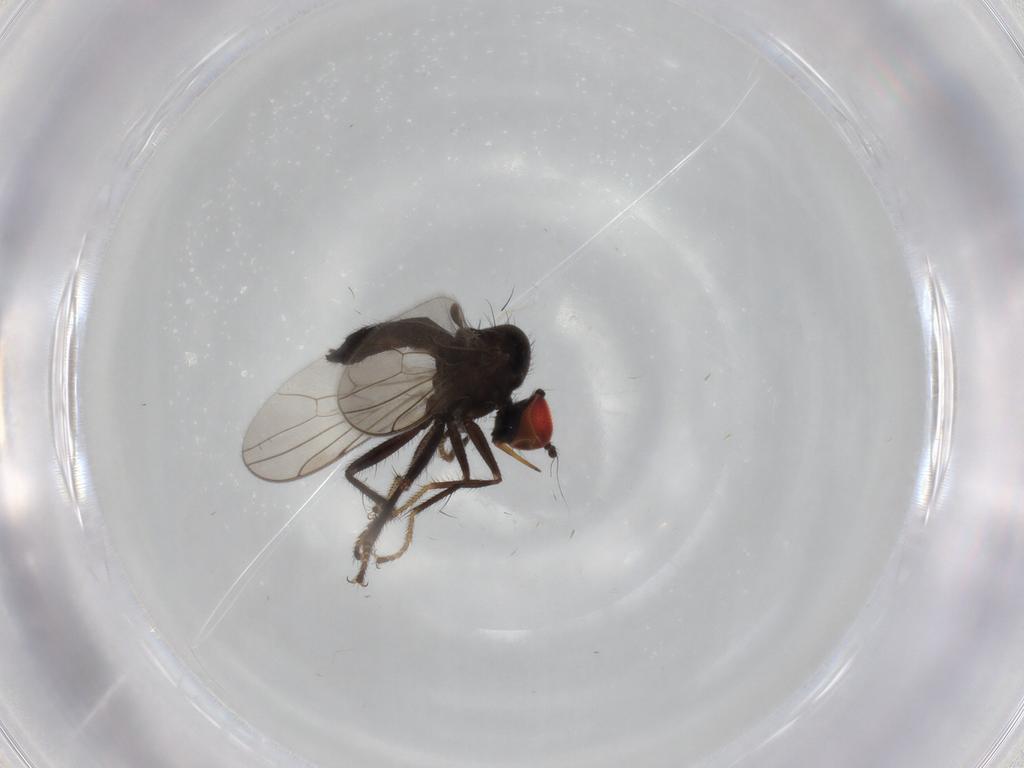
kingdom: Animalia
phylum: Arthropoda
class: Insecta
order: Diptera
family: Hybotidae
